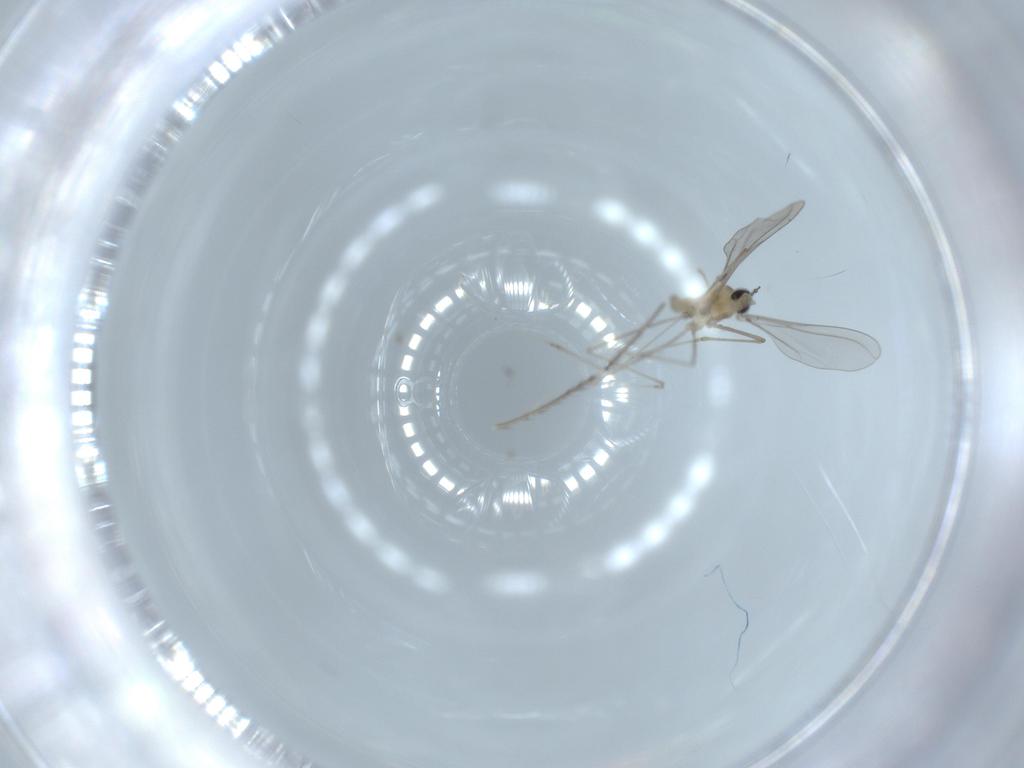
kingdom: Animalia
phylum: Arthropoda
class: Insecta
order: Diptera
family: Cecidomyiidae
